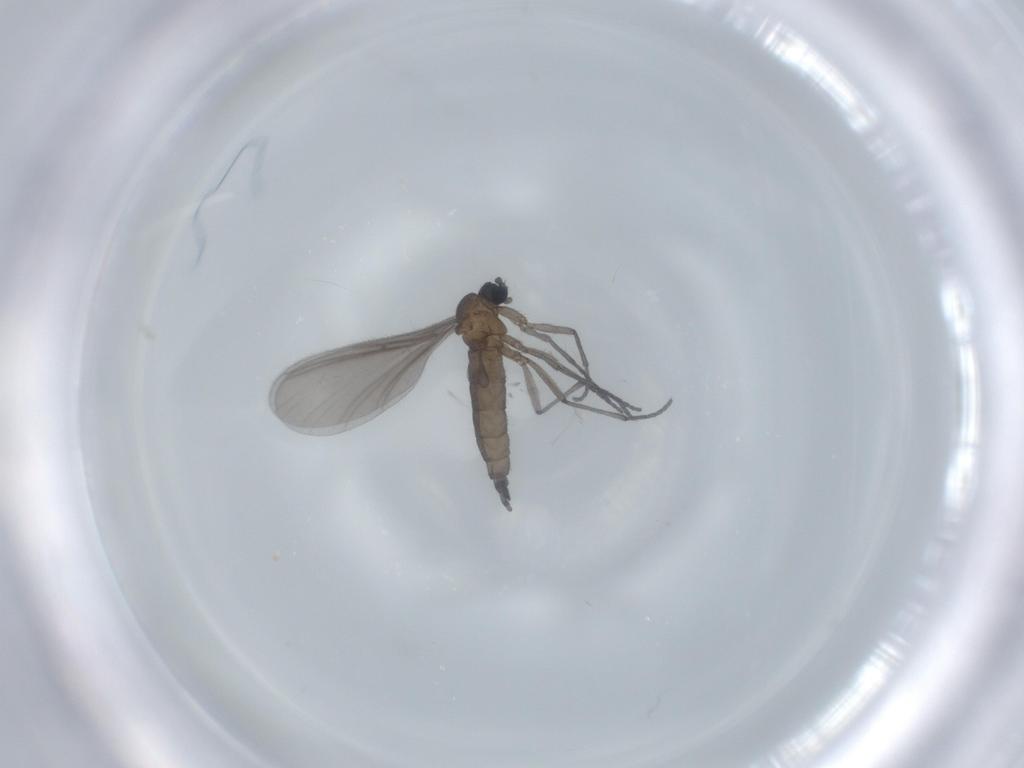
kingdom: Animalia
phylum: Arthropoda
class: Insecta
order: Diptera
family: Sciaridae
